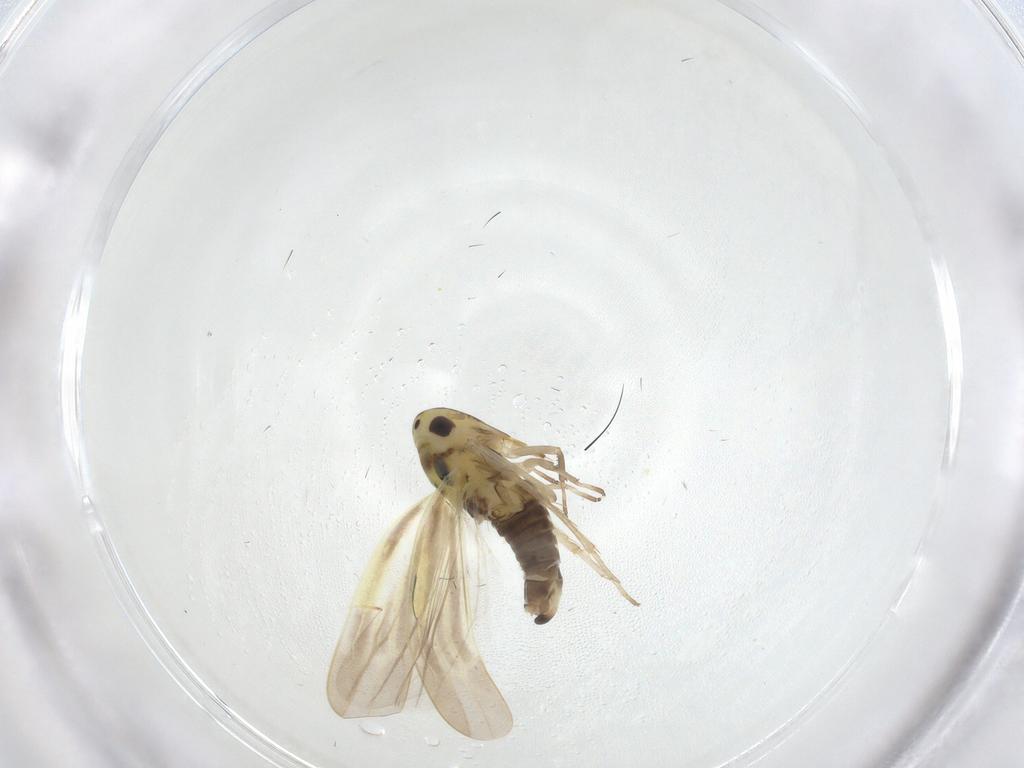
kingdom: Animalia
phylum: Arthropoda
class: Insecta
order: Hemiptera
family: Cicadellidae
